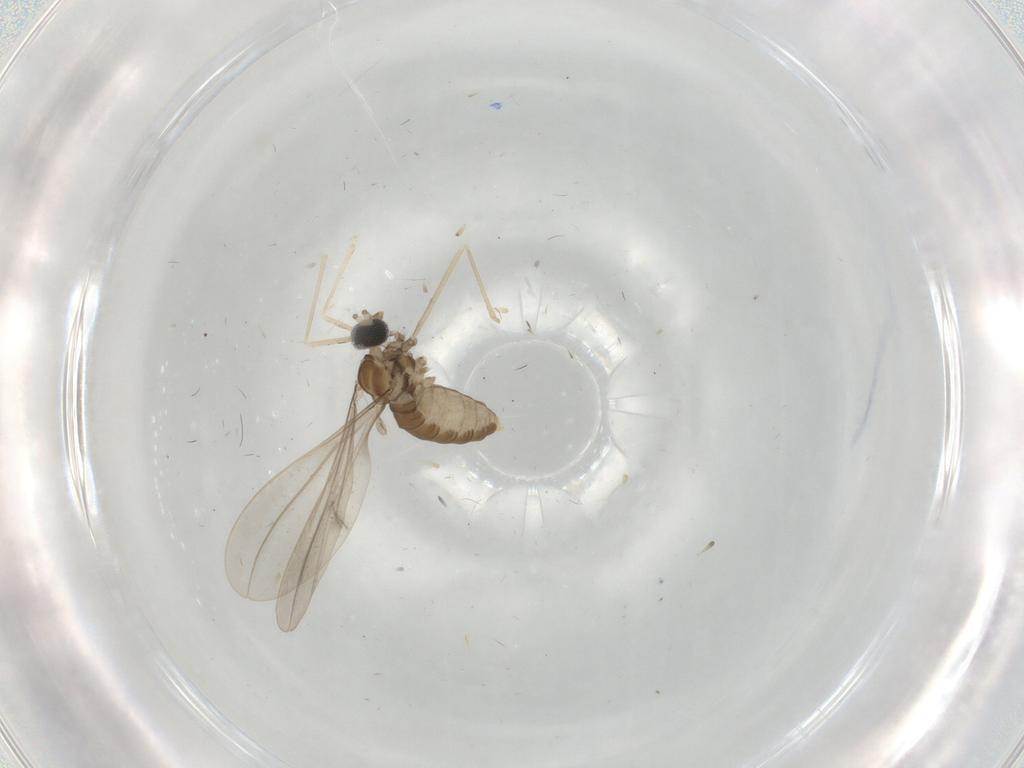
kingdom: Animalia
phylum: Arthropoda
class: Insecta
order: Diptera
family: Cecidomyiidae
